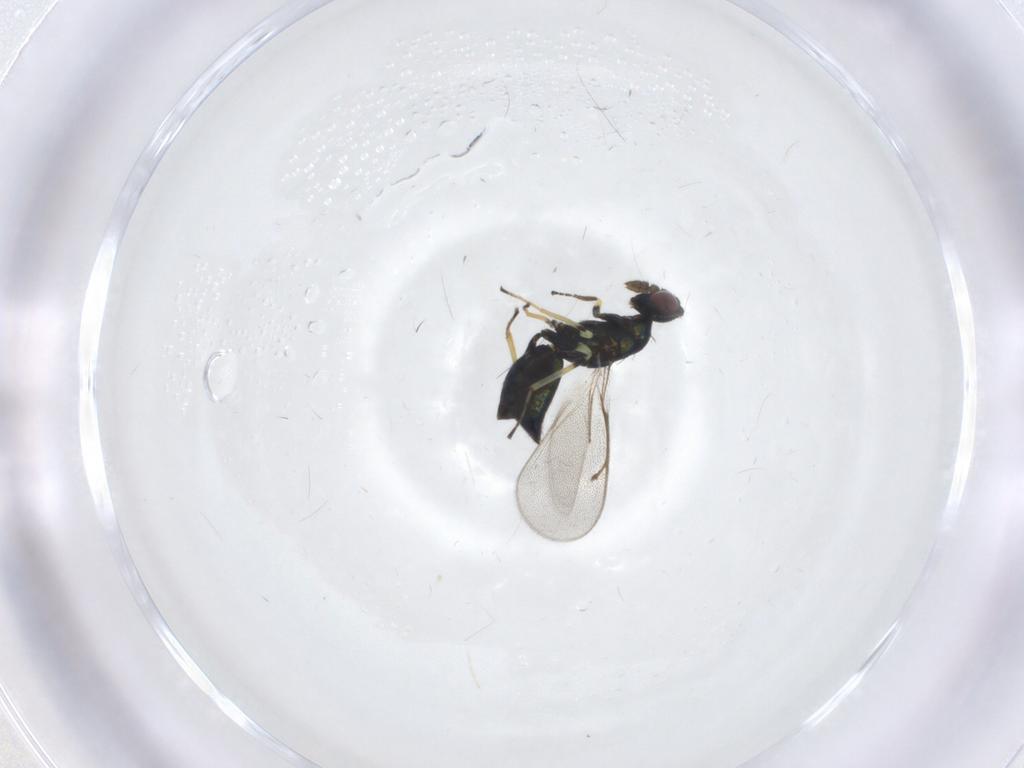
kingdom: Animalia
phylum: Arthropoda
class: Insecta
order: Hymenoptera
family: Eulophidae
